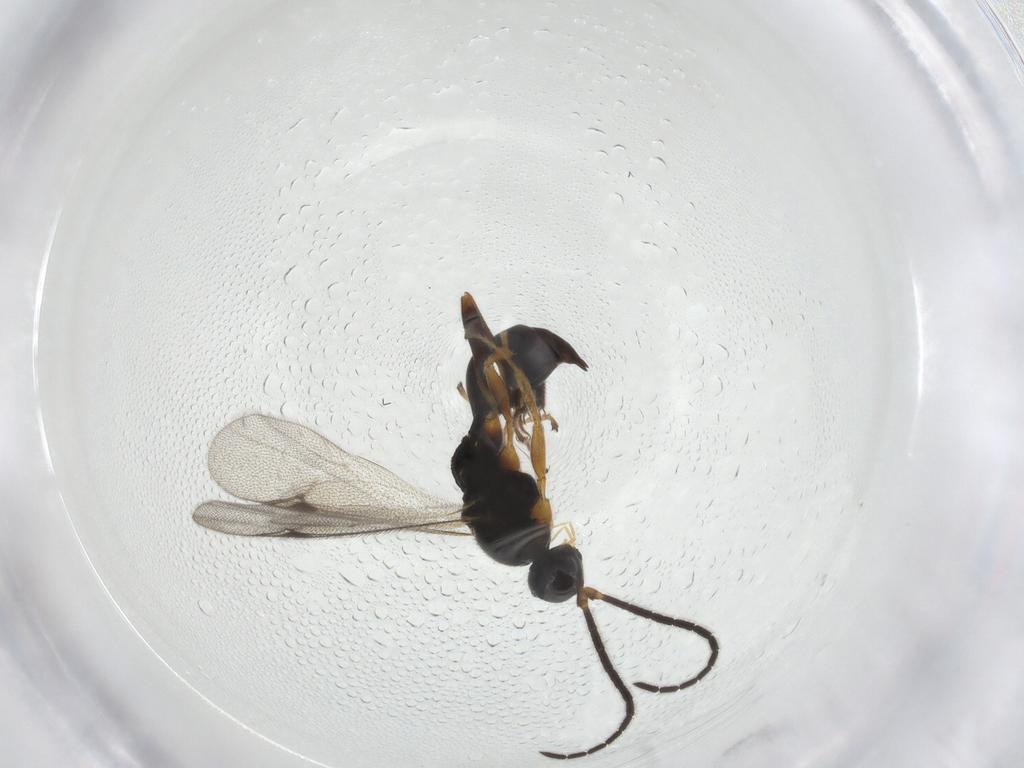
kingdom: Animalia
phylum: Arthropoda
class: Insecta
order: Hymenoptera
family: Proctotrupidae
